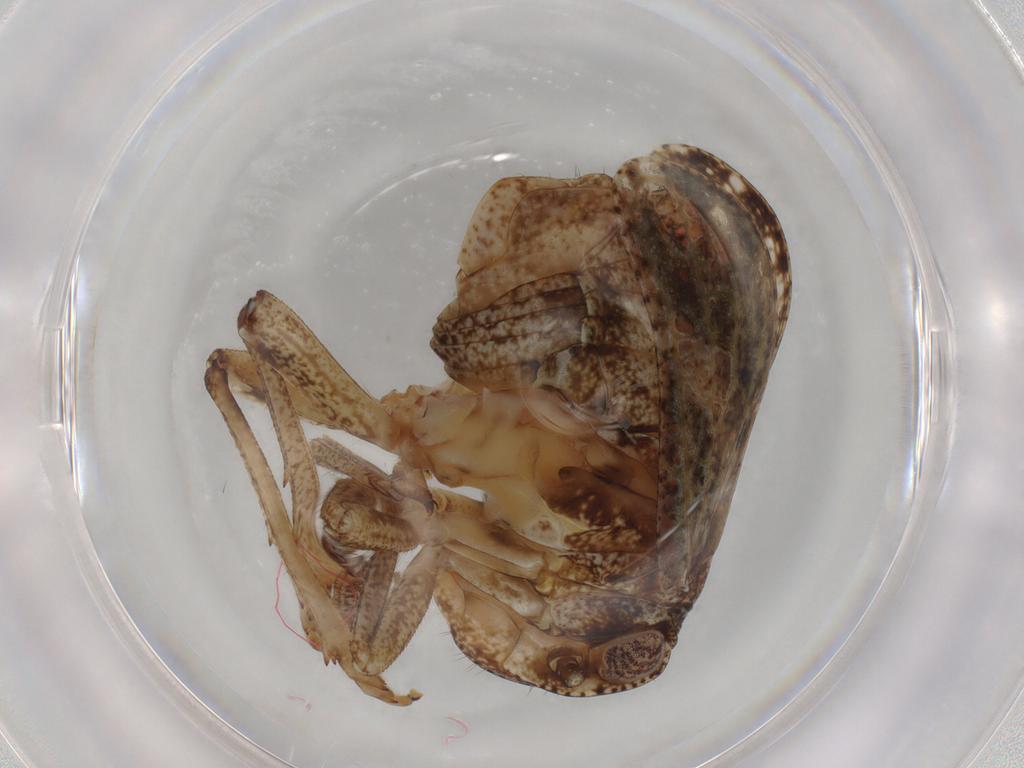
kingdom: Animalia
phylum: Arthropoda
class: Insecta
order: Hemiptera
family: Tropiduchidae
